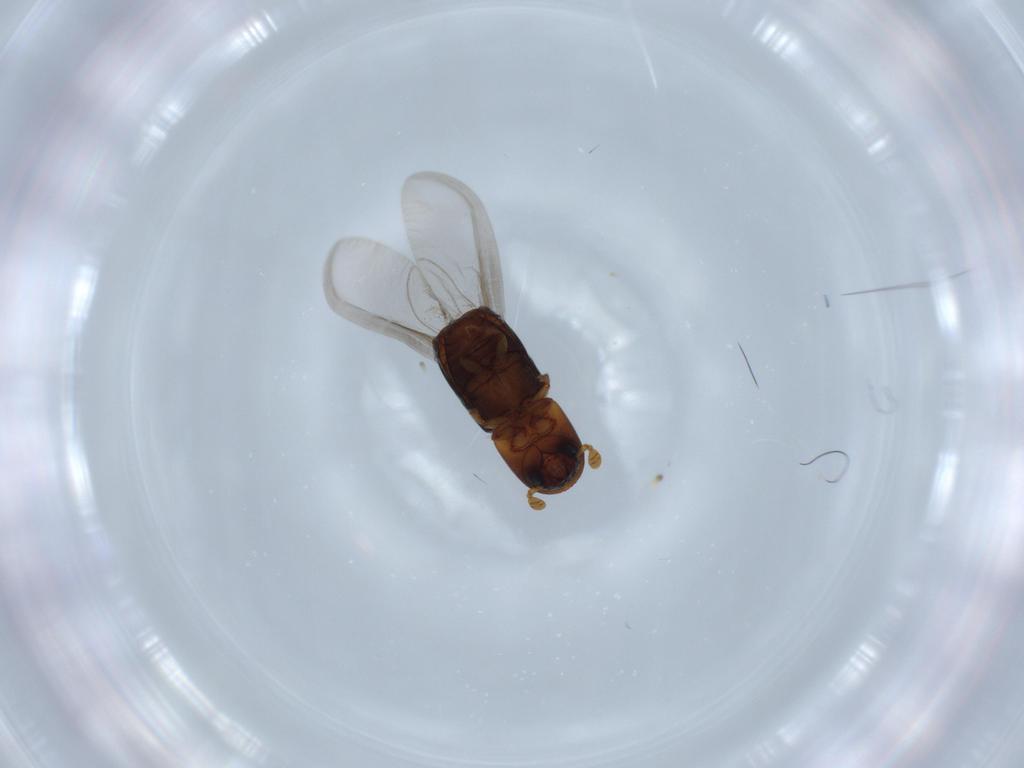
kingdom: Animalia
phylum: Arthropoda
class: Insecta
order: Coleoptera
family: Curculionidae
